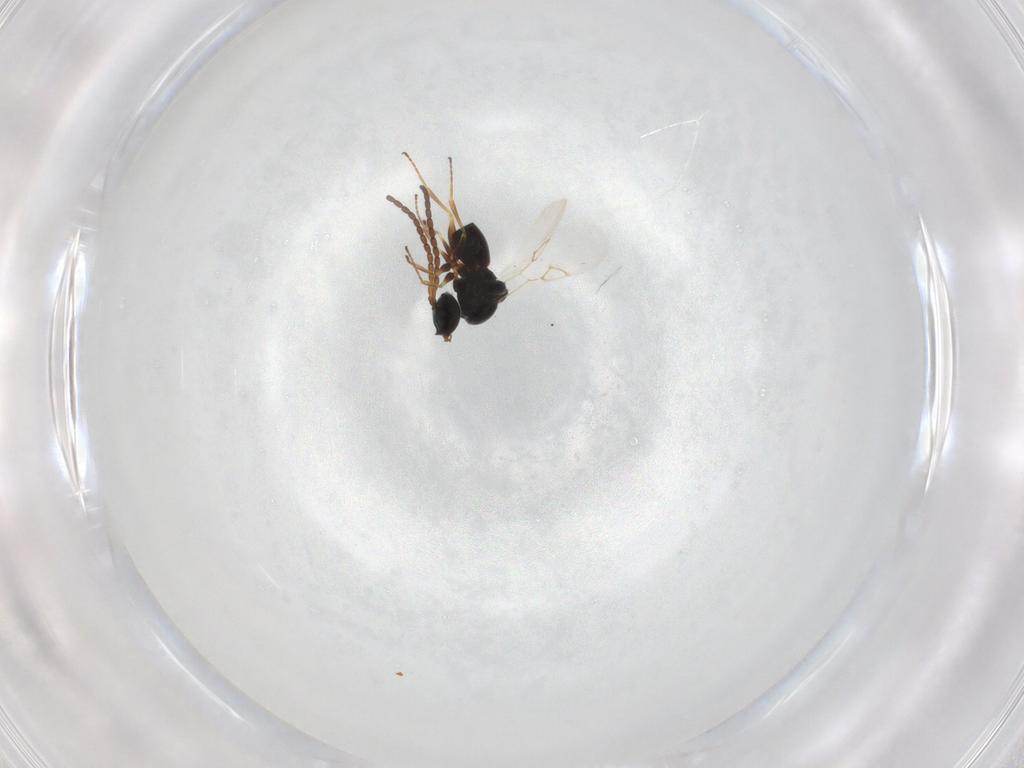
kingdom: Animalia
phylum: Arthropoda
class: Insecta
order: Hymenoptera
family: Figitidae
